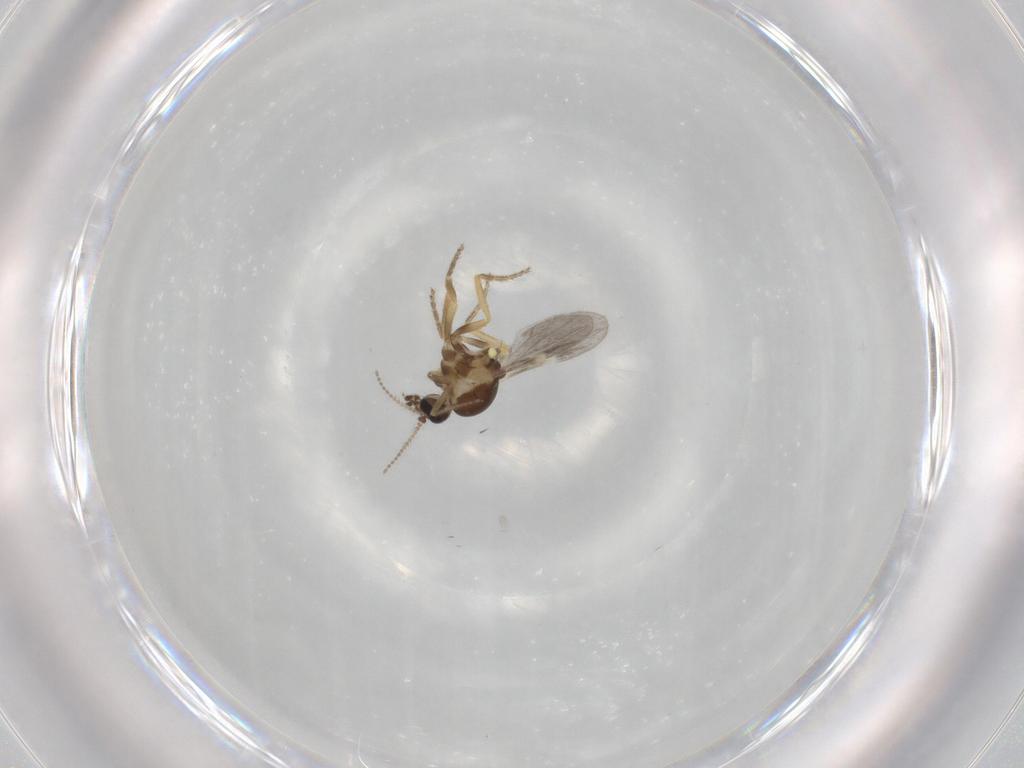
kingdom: Animalia
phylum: Arthropoda
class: Insecta
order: Diptera
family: Ceratopogonidae
